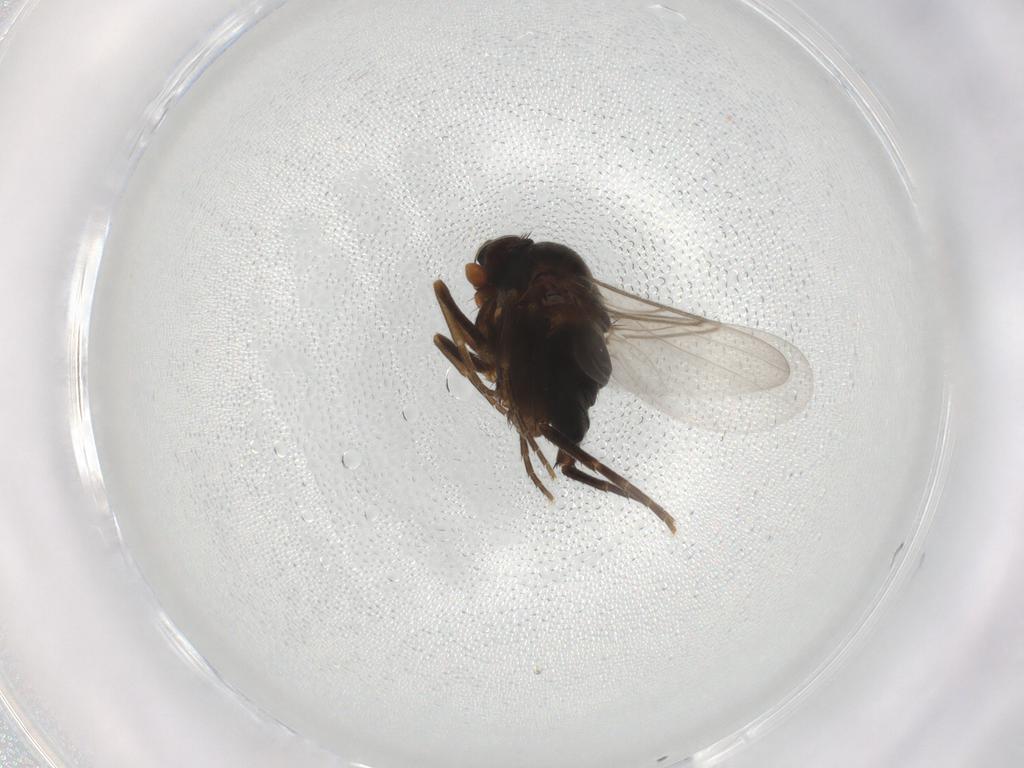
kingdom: Animalia
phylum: Arthropoda
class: Insecta
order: Diptera
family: Phoridae
